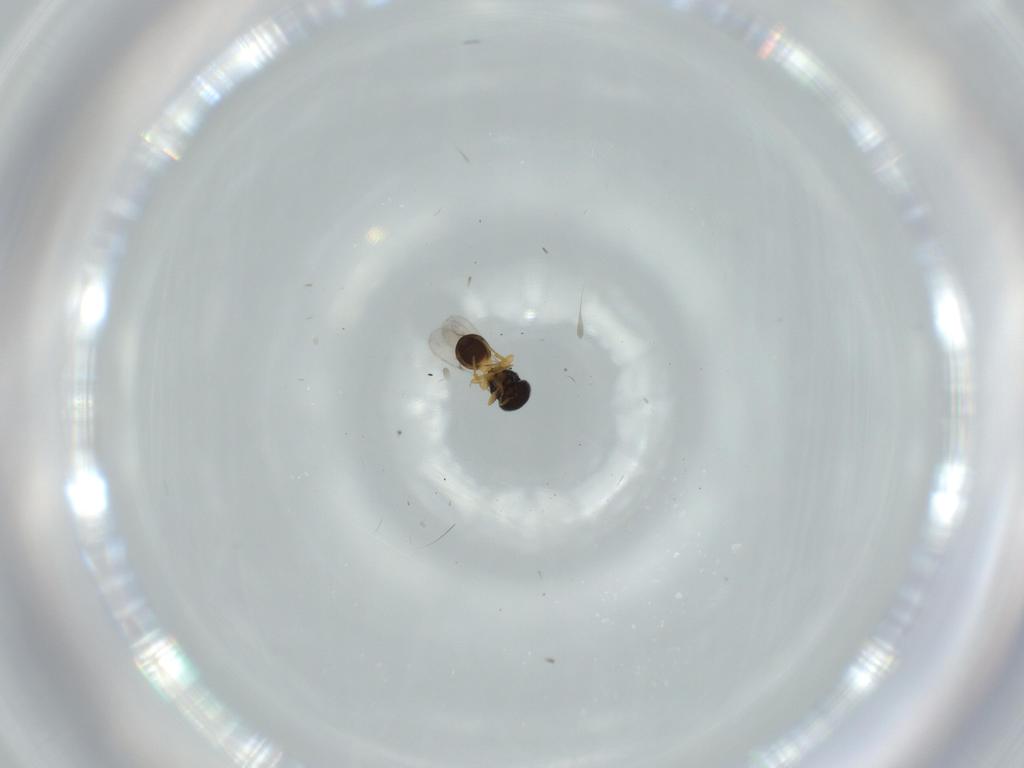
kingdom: Animalia
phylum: Arthropoda
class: Insecta
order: Hymenoptera
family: Scelionidae
